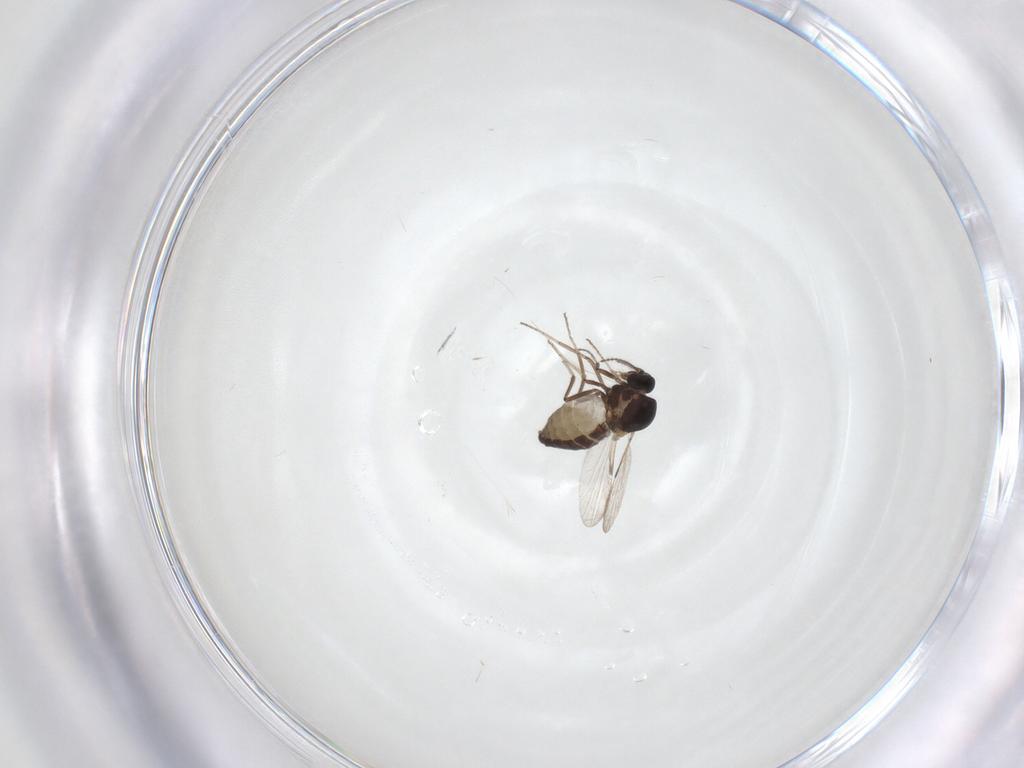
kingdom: Animalia
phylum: Arthropoda
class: Insecta
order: Diptera
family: Ceratopogonidae
